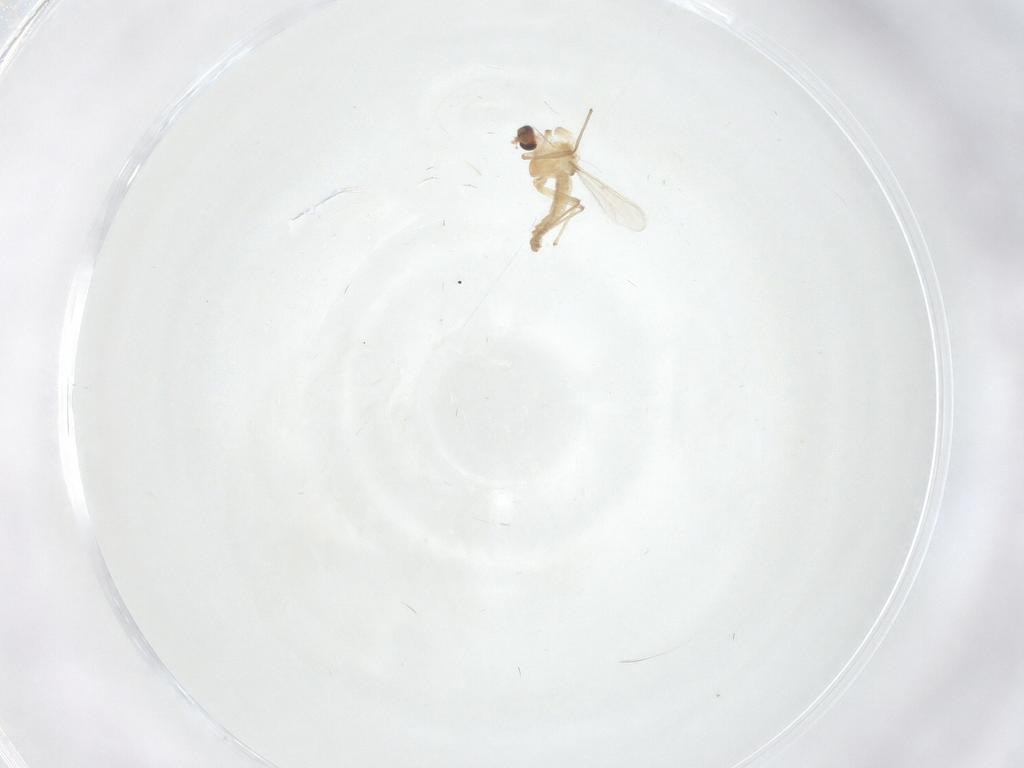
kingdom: Animalia
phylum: Arthropoda
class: Insecta
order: Diptera
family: Chironomidae
